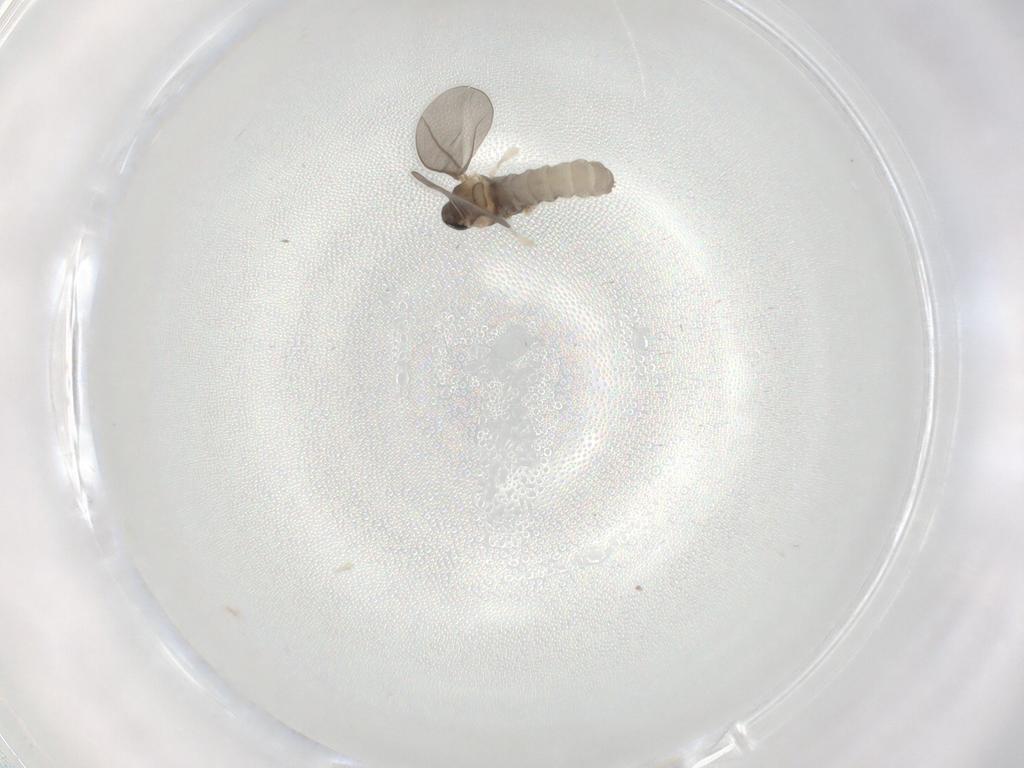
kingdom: Animalia
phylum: Arthropoda
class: Insecta
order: Diptera
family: Cecidomyiidae
